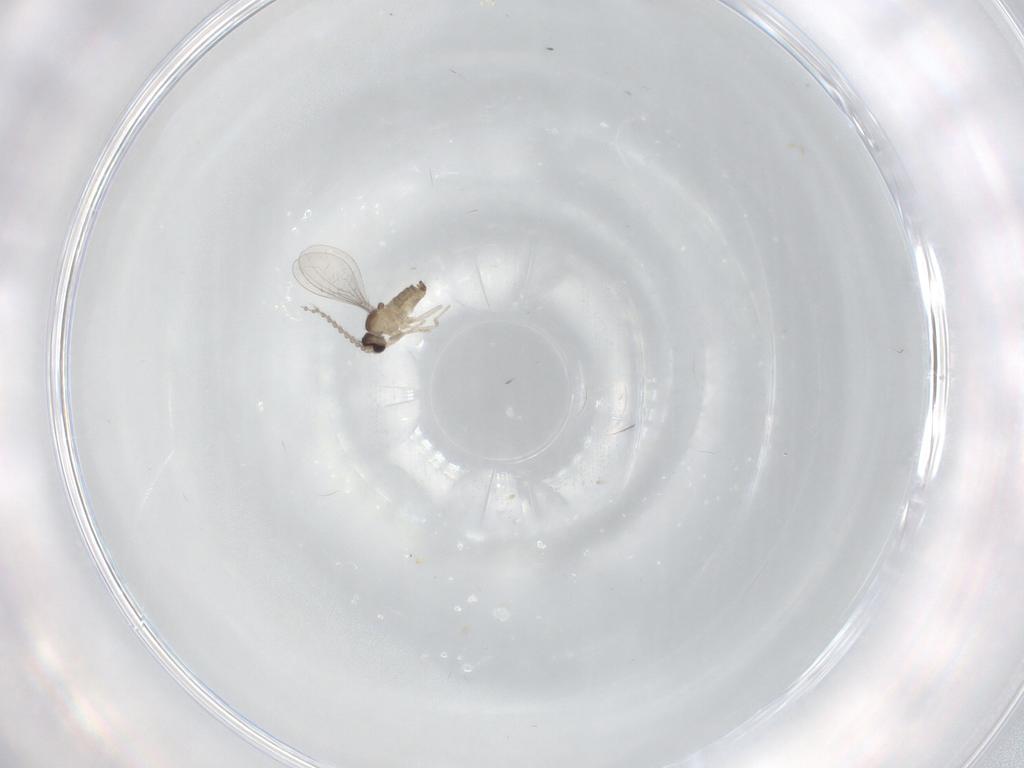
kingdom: Animalia
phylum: Arthropoda
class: Insecta
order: Diptera
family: Cecidomyiidae
